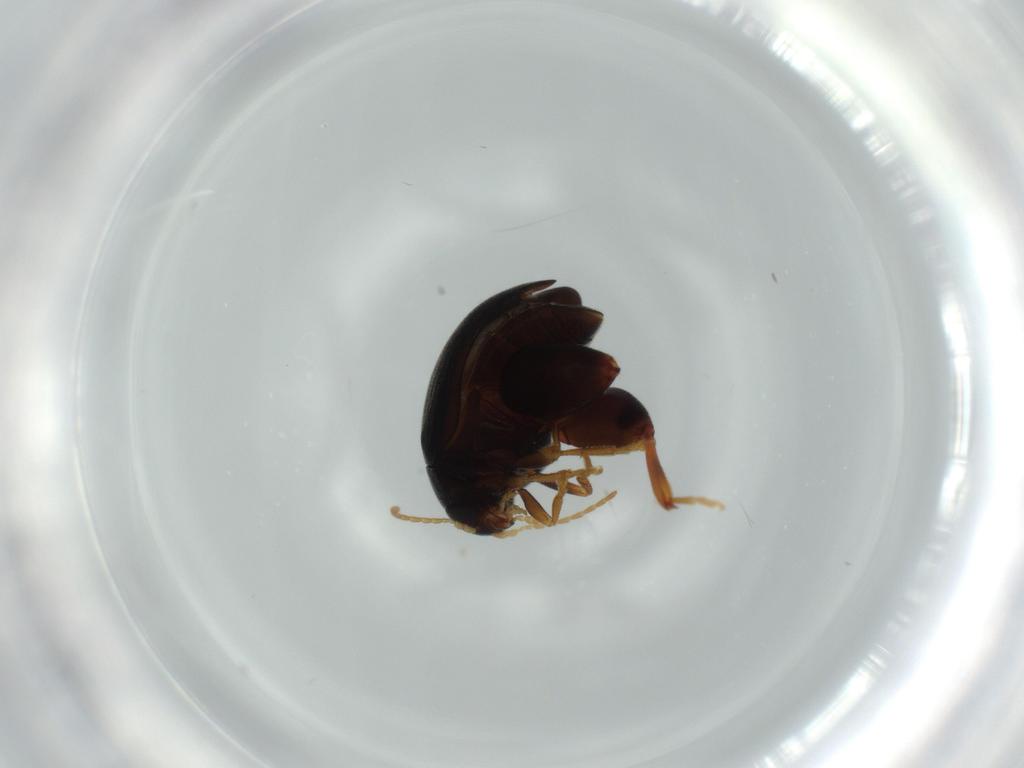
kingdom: Animalia
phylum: Arthropoda
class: Insecta
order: Coleoptera
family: Chrysomelidae
